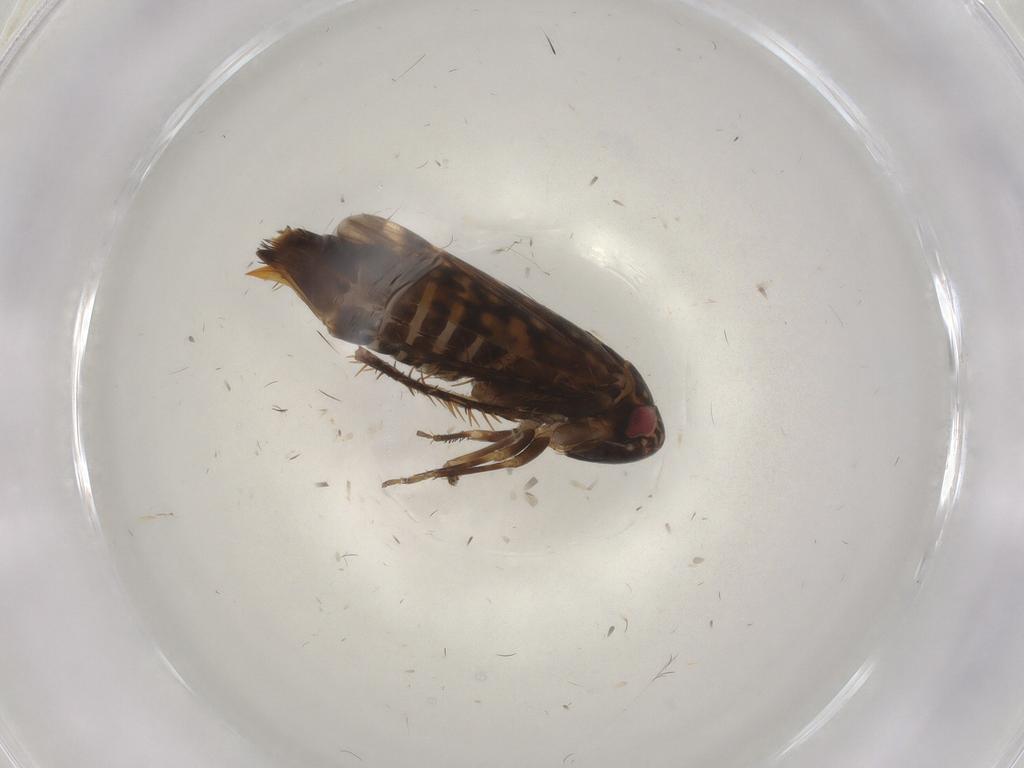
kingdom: Animalia
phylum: Arthropoda
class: Insecta
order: Hemiptera
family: Cicadellidae
